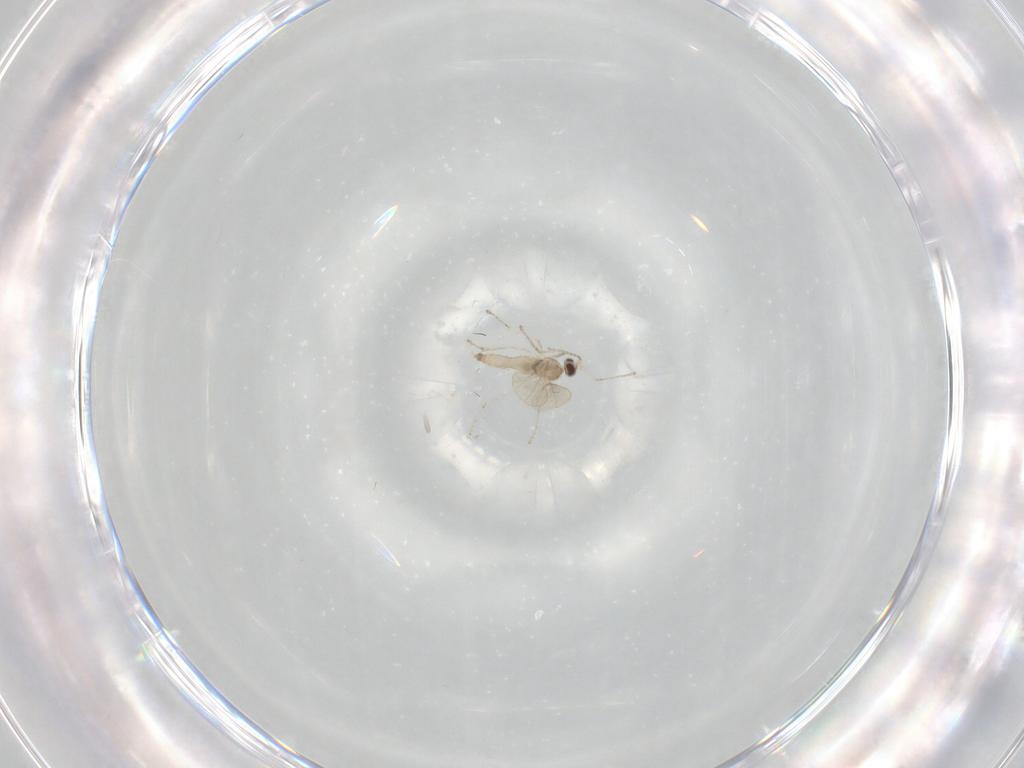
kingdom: Animalia
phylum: Arthropoda
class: Insecta
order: Diptera
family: Cecidomyiidae
